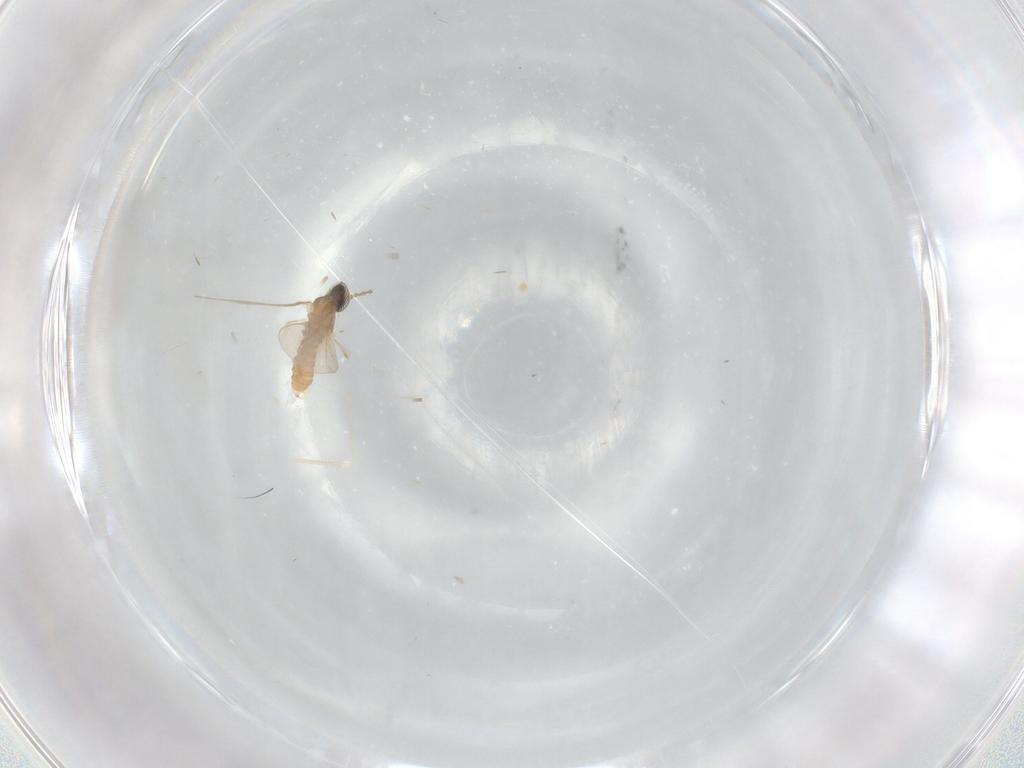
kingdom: Animalia
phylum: Arthropoda
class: Insecta
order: Diptera
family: Cecidomyiidae
